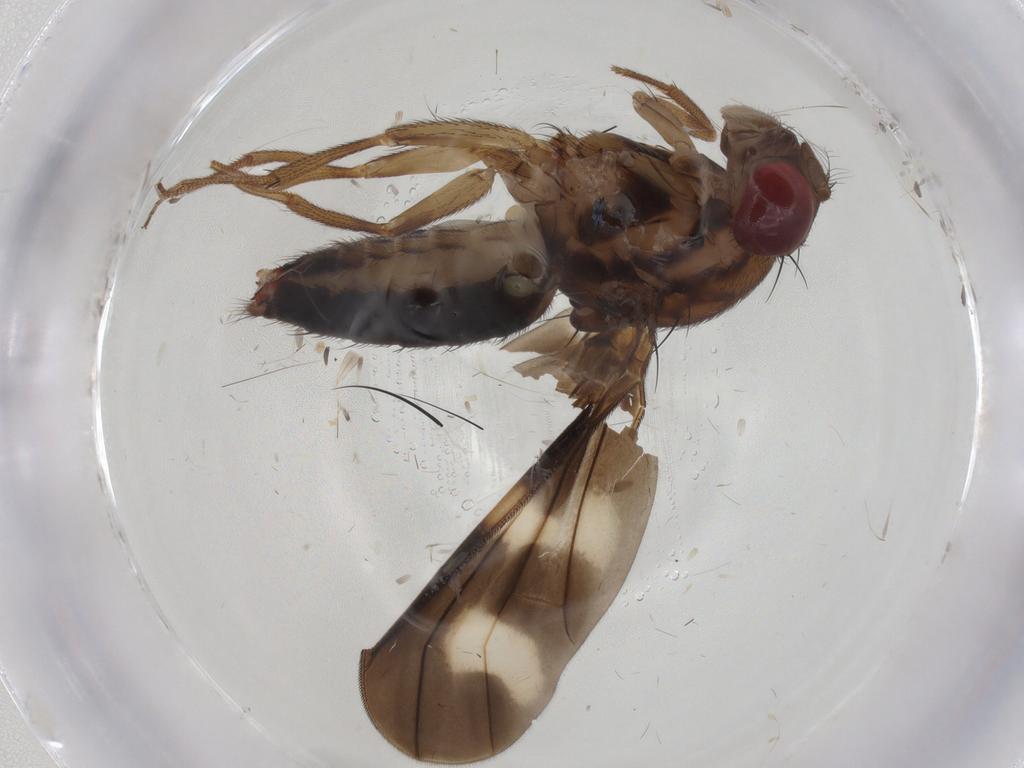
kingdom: Animalia
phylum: Arthropoda
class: Insecta
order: Diptera
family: Drosophilidae
